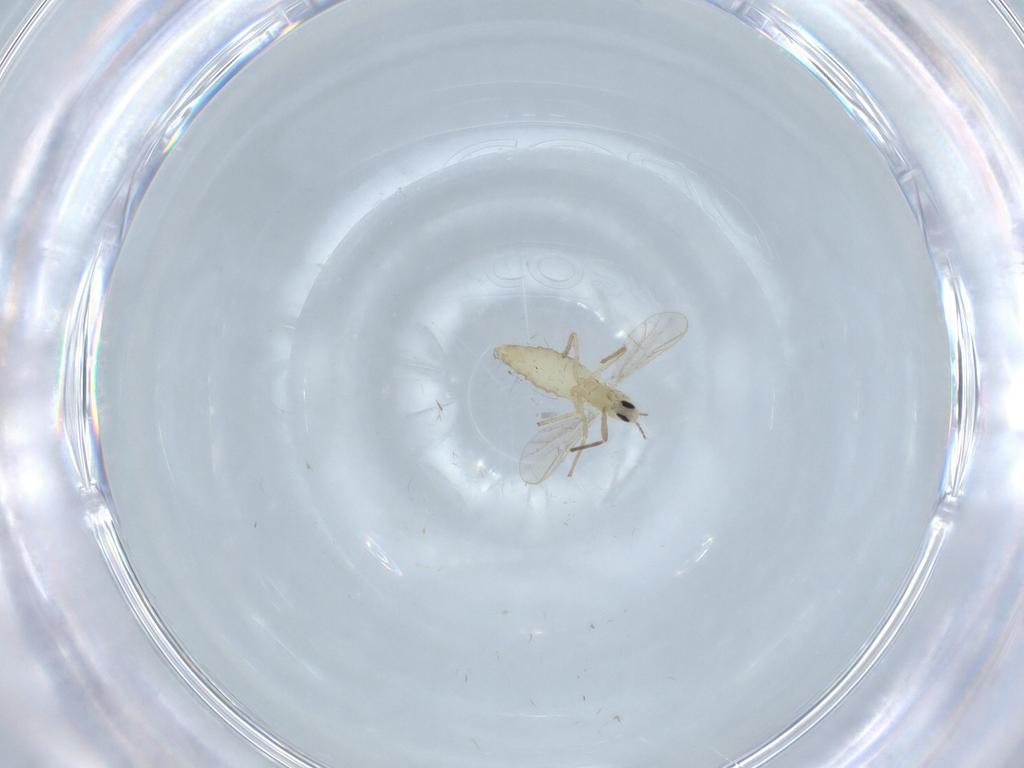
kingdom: Animalia
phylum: Arthropoda
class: Insecta
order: Diptera
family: Chironomidae
